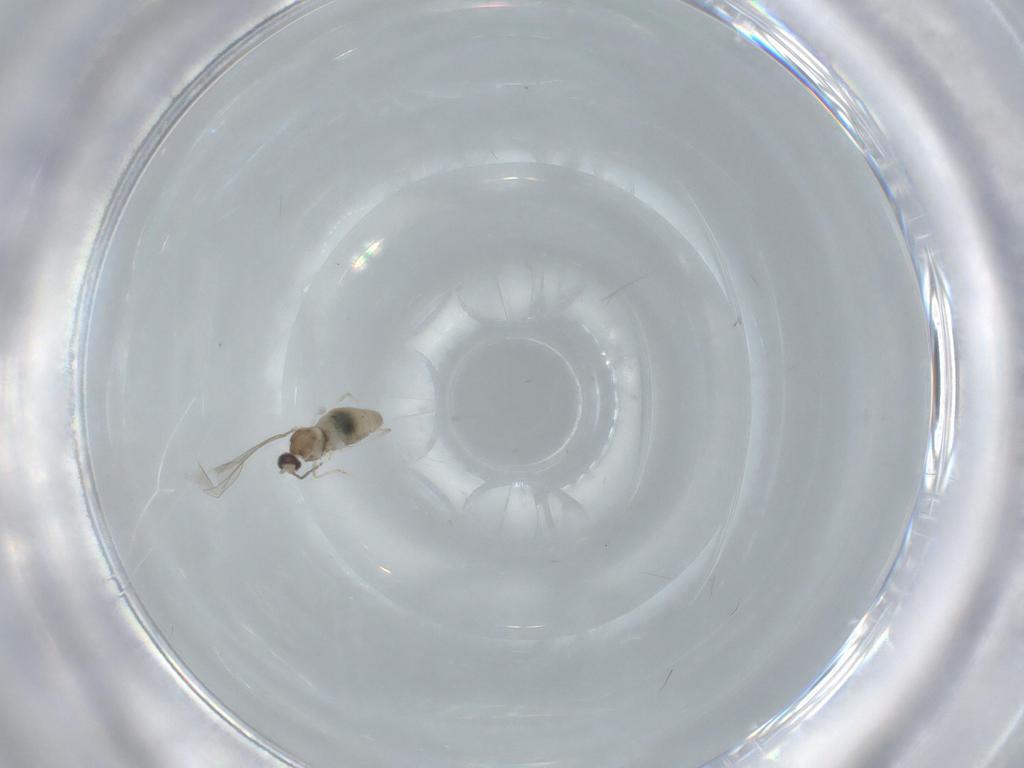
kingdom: Animalia
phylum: Arthropoda
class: Insecta
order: Diptera
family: Cecidomyiidae
